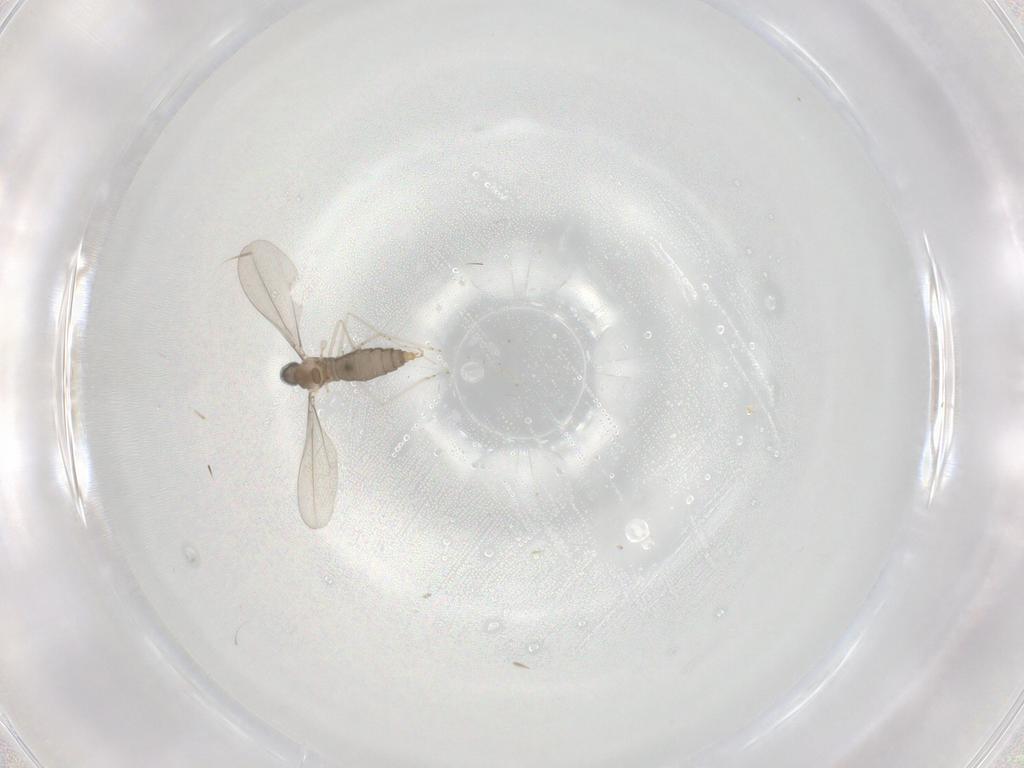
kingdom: Animalia
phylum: Arthropoda
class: Insecta
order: Diptera
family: Cecidomyiidae
